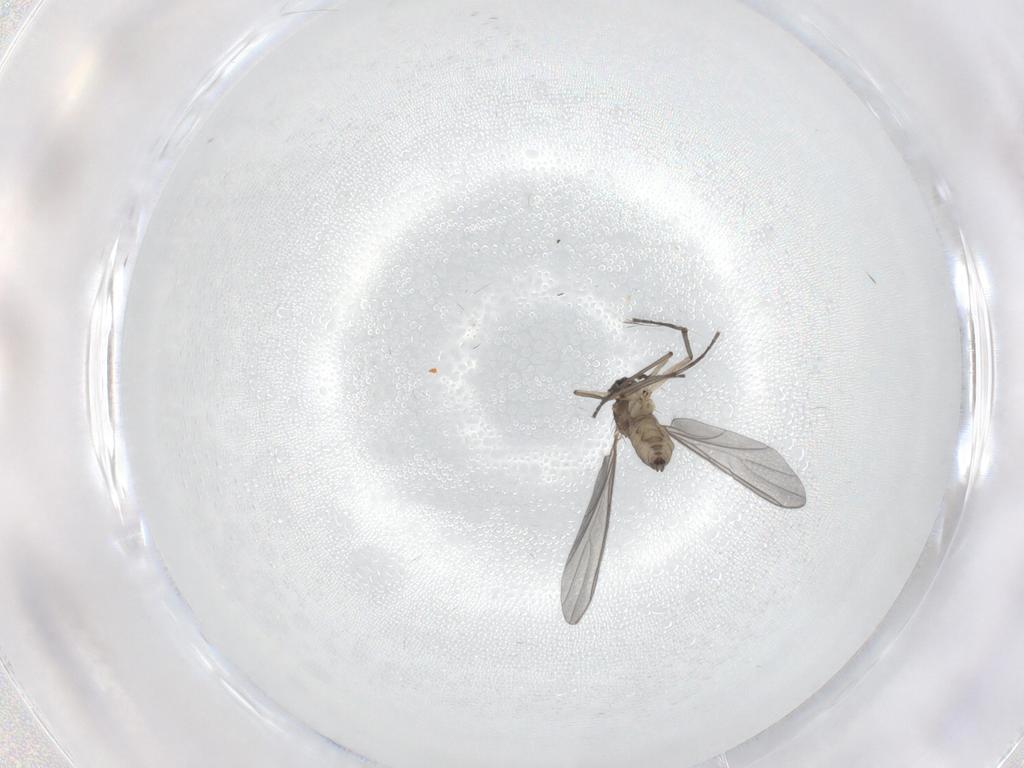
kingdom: Animalia
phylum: Arthropoda
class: Insecta
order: Diptera
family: Sciaridae
